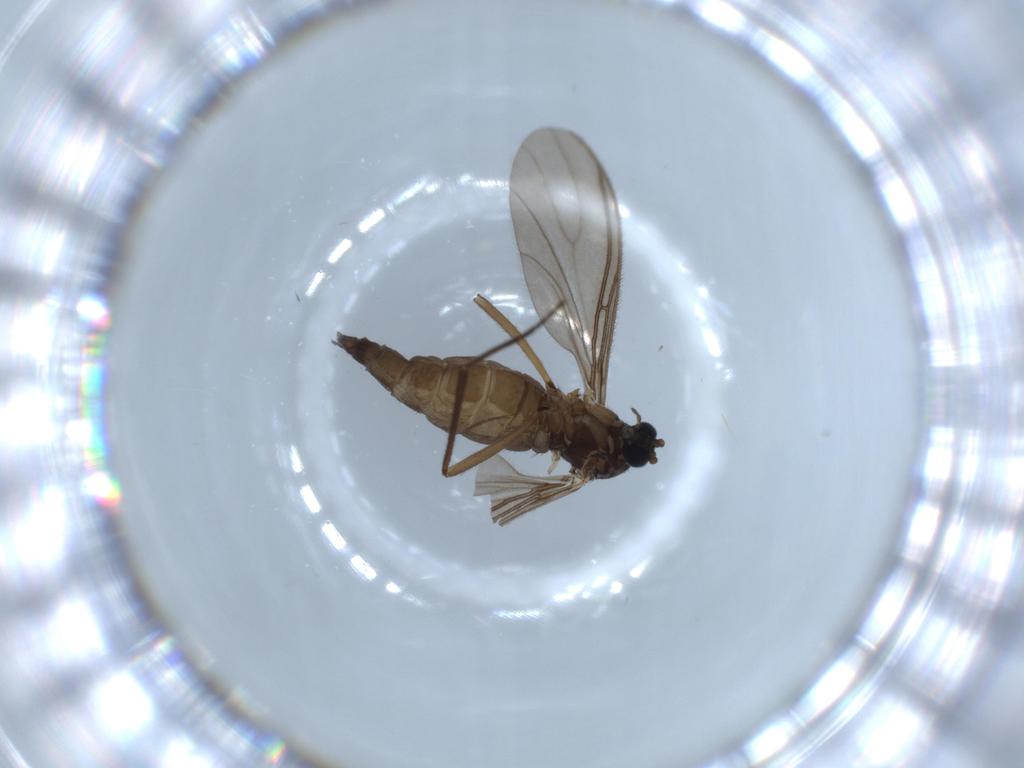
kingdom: Animalia
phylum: Arthropoda
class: Insecta
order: Diptera
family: Sciaridae
